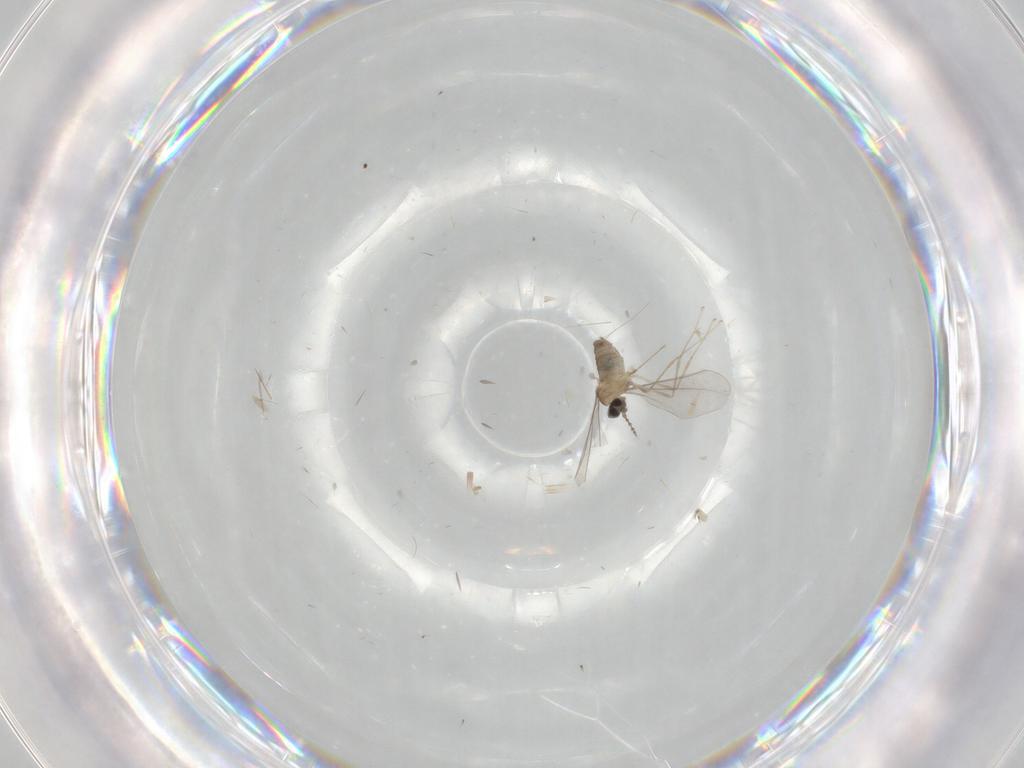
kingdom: Animalia
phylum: Arthropoda
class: Insecta
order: Diptera
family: Cecidomyiidae
